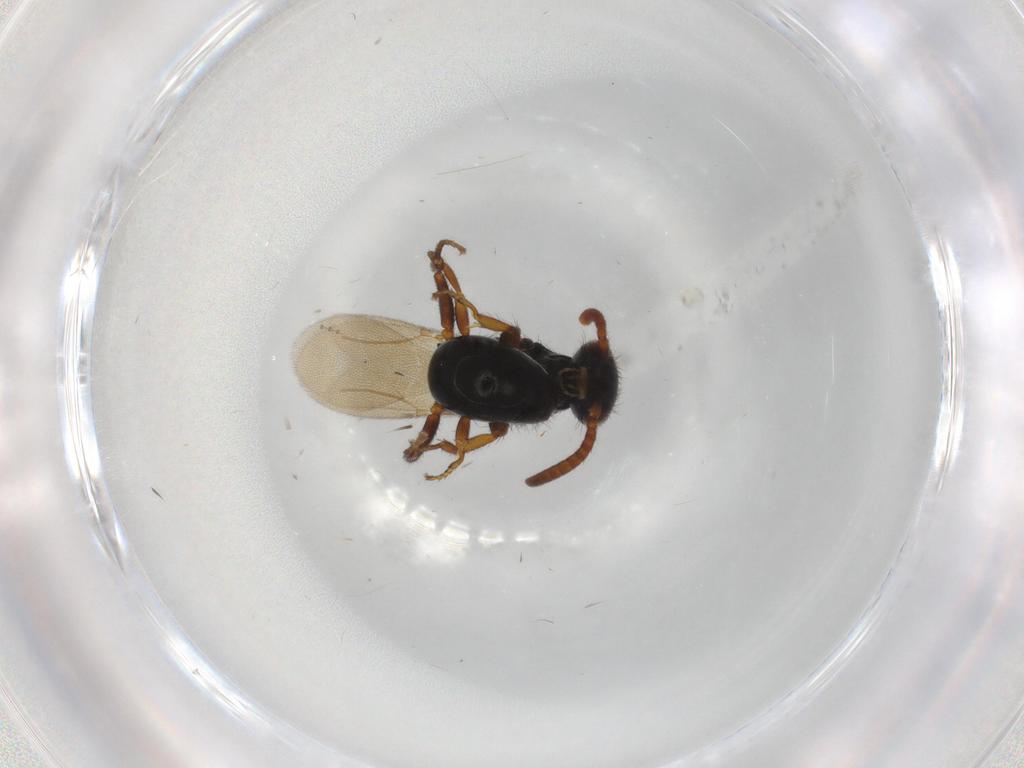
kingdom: Animalia
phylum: Arthropoda
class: Insecta
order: Hymenoptera
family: Bethylidae
